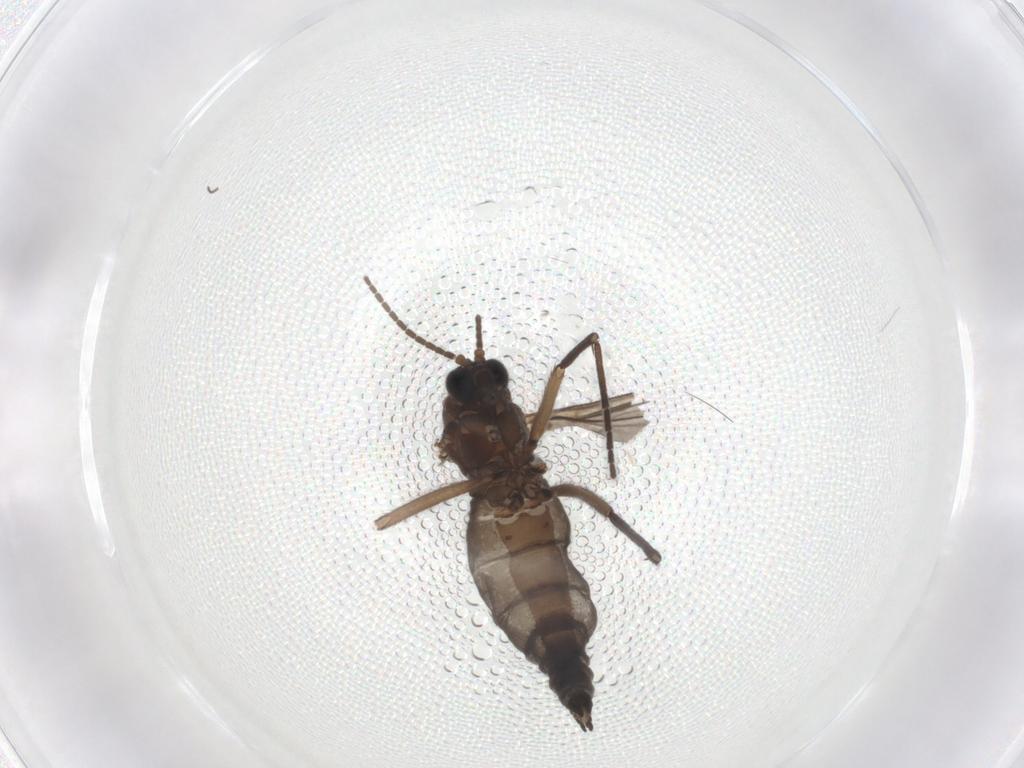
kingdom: Animalia
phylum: Arthropoda
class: Insecta
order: Diptera
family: Sciaridae
